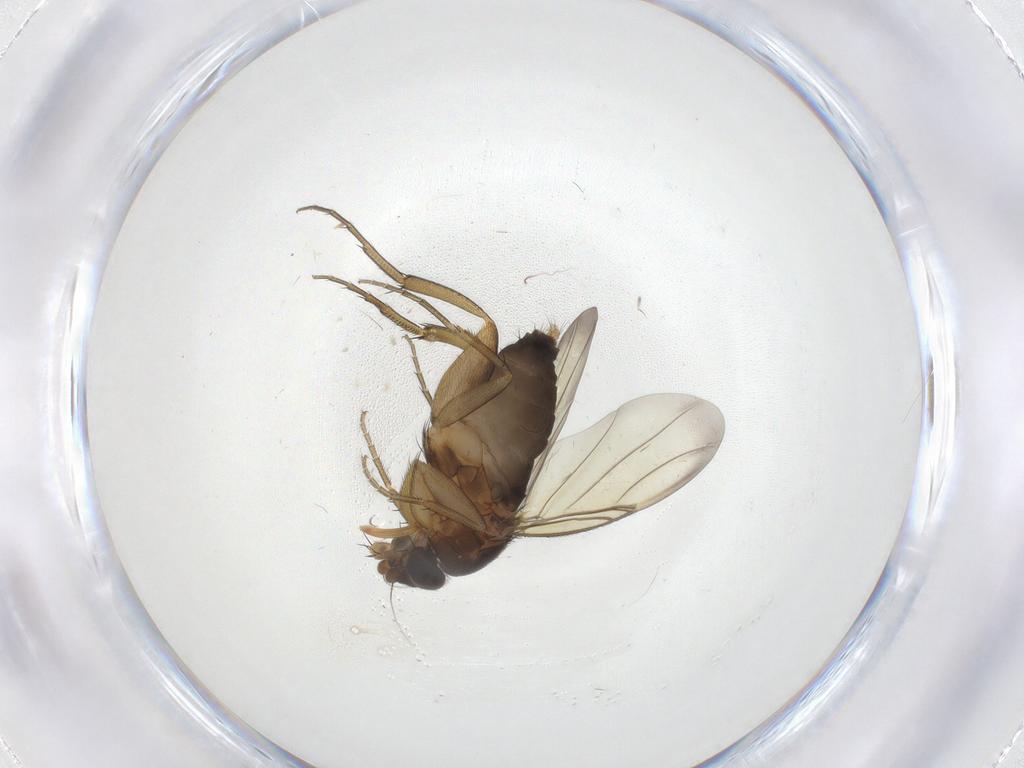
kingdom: Animalia
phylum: Arthropoda
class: Insecta
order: Diptera
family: Phoridae
